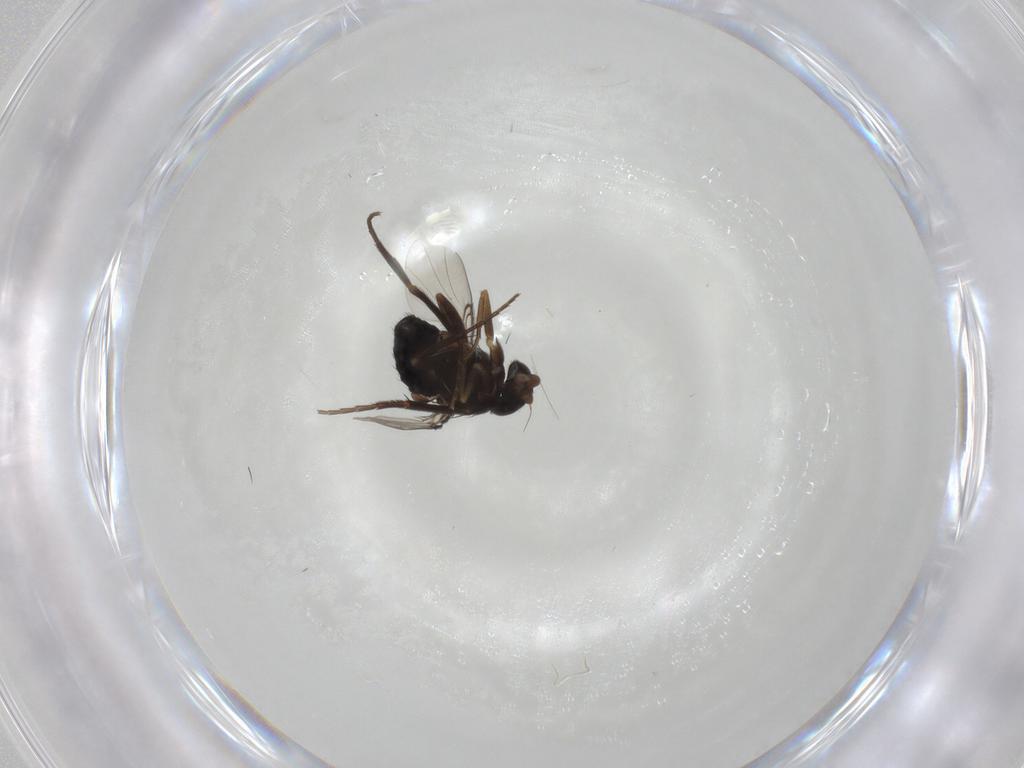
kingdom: Animalia
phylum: Arthropoda
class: Insecta
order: Diptera
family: Phoridae
